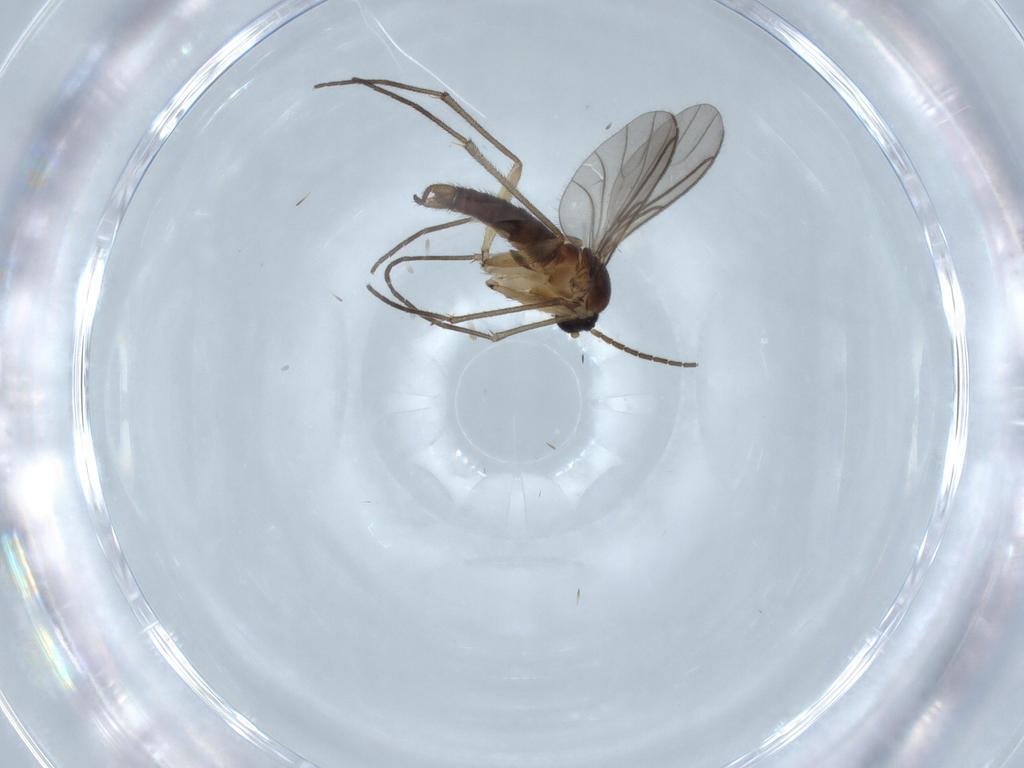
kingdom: Animalia
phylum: Arthropoda
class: Insecta
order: Diptera
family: Sciaridae
